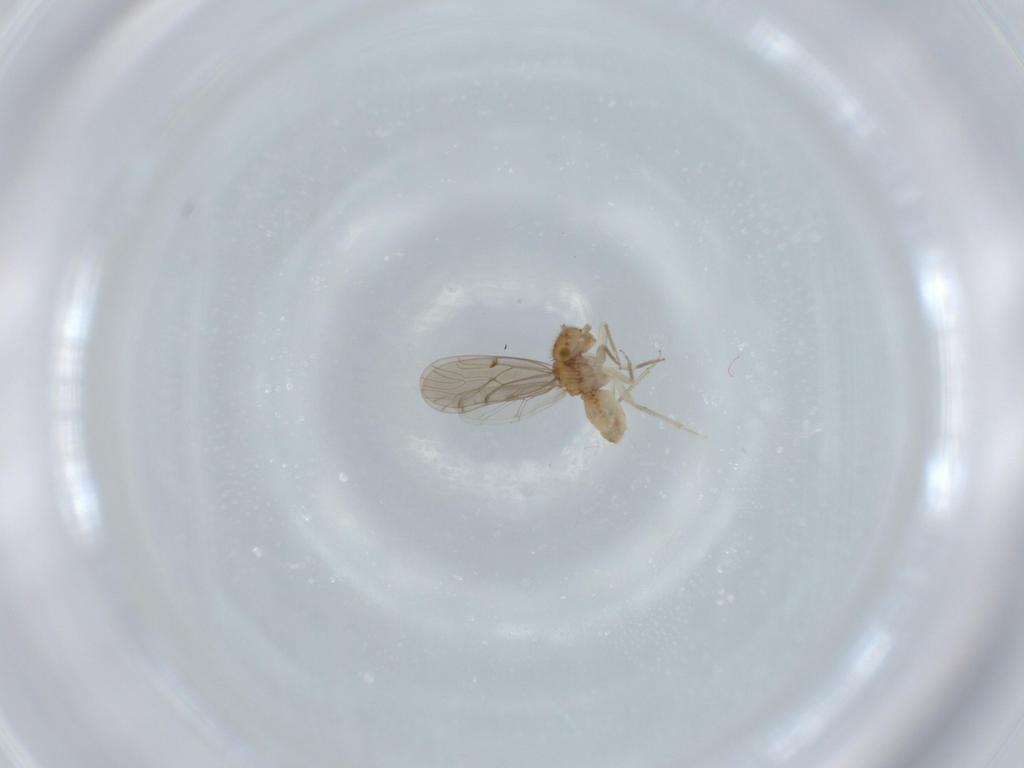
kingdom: Animalia
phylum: Arthropoda
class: Insecta
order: Psocodea
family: Ectopsocidae
